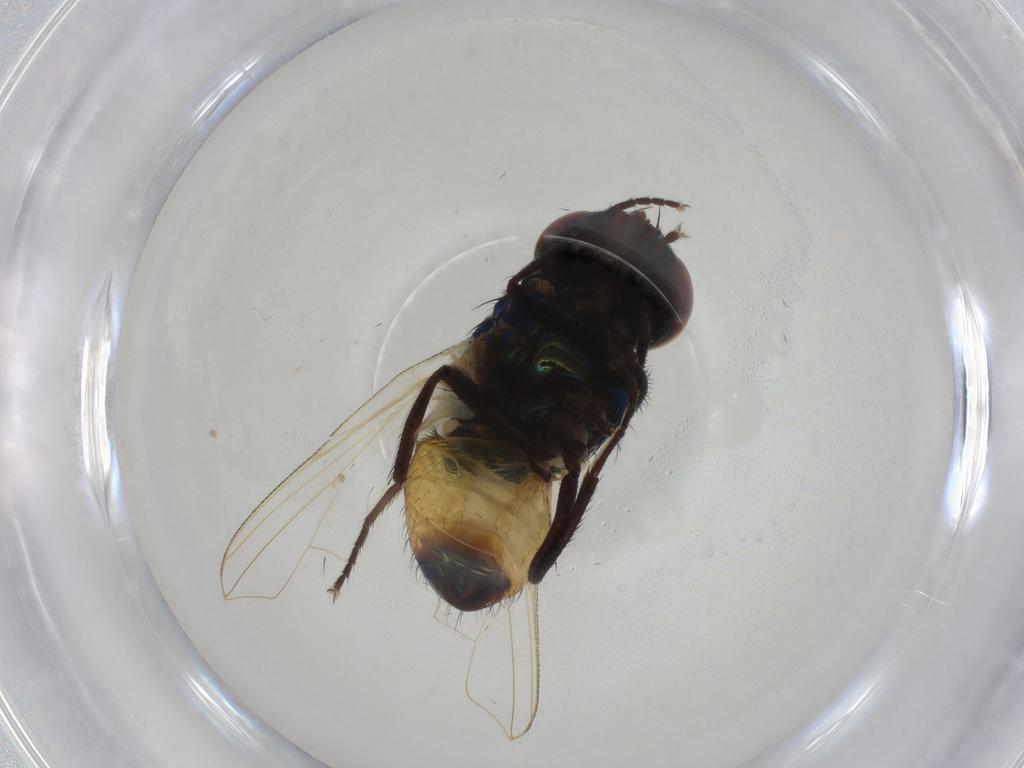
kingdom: Animalia
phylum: Arthropoda
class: Insecta
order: Diptera
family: Muscidae
